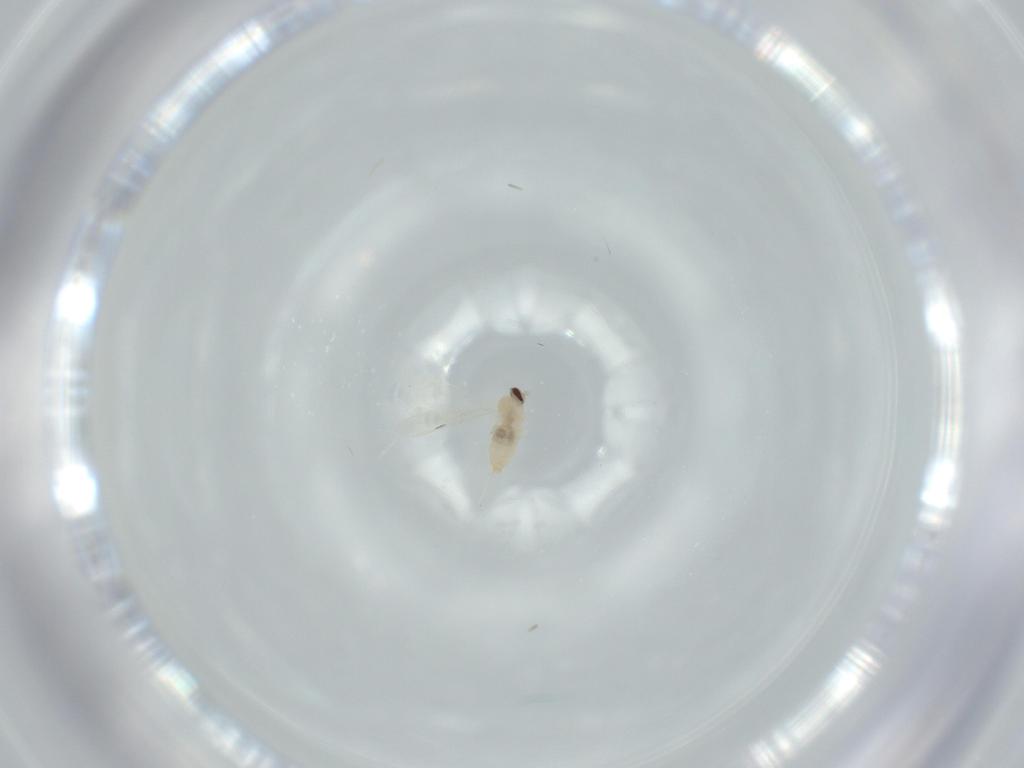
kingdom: Animalia
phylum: Arthropoda
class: Insecta
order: Diptera
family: Cecidomyiidae
